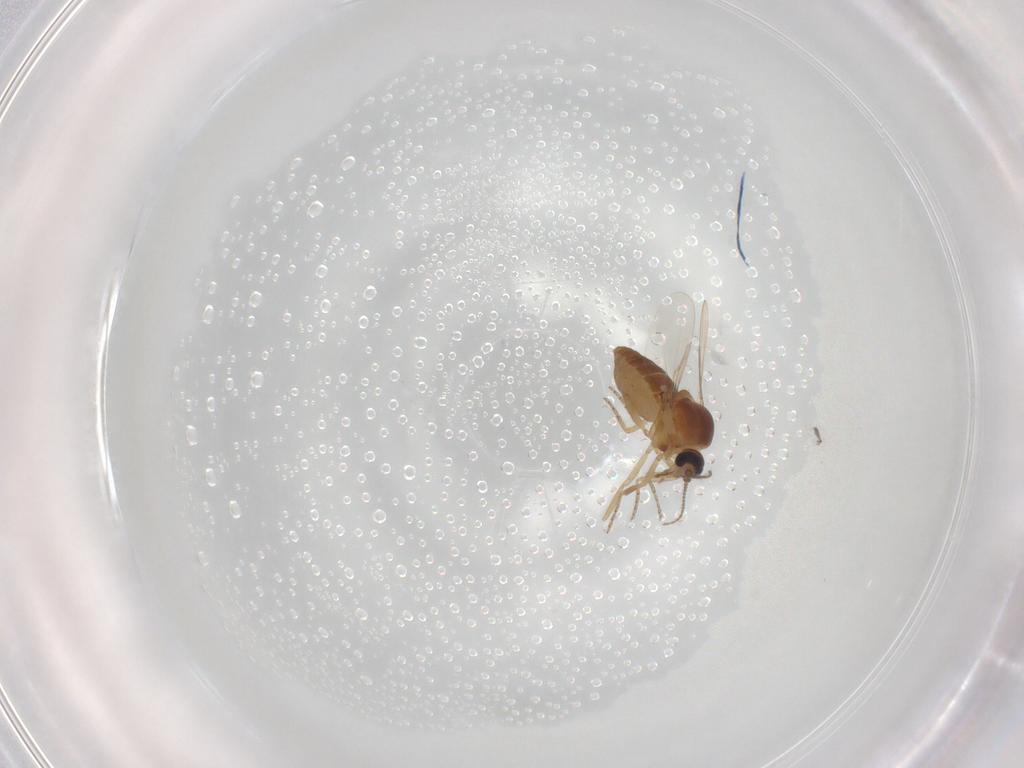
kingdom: Animalia
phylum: Arthropoda
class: Insecta
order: Diptera
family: Ceratopogonidae
